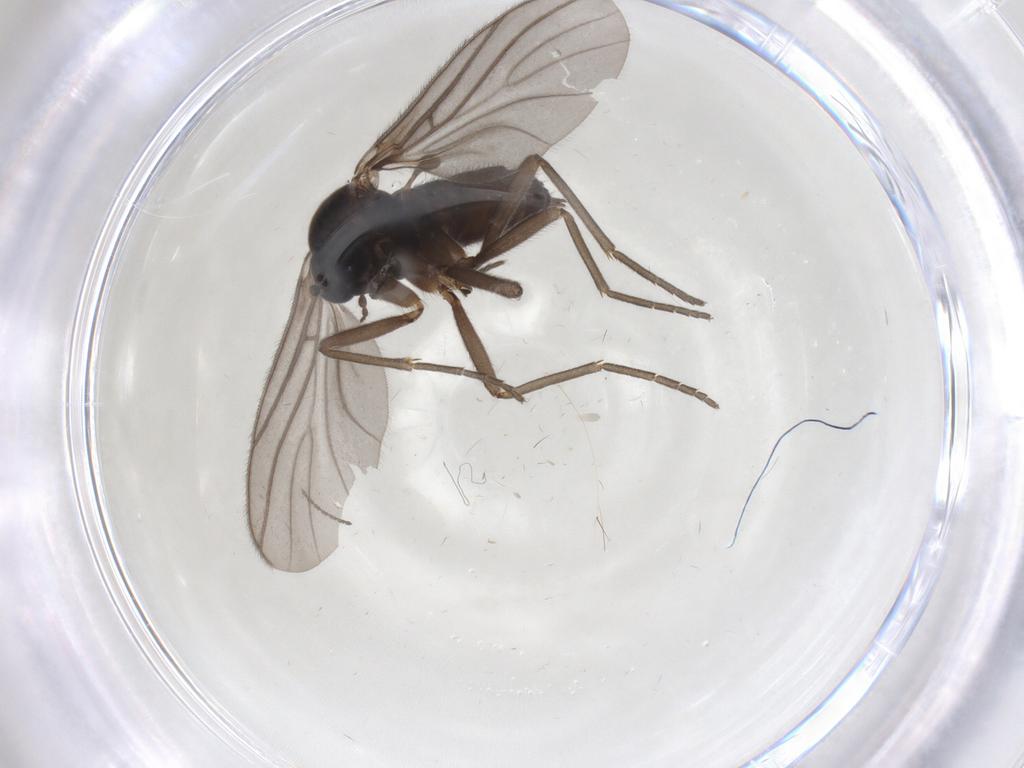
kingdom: Animalia
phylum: Arthropoda
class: Insecta
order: Diptera
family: Sciaridae
